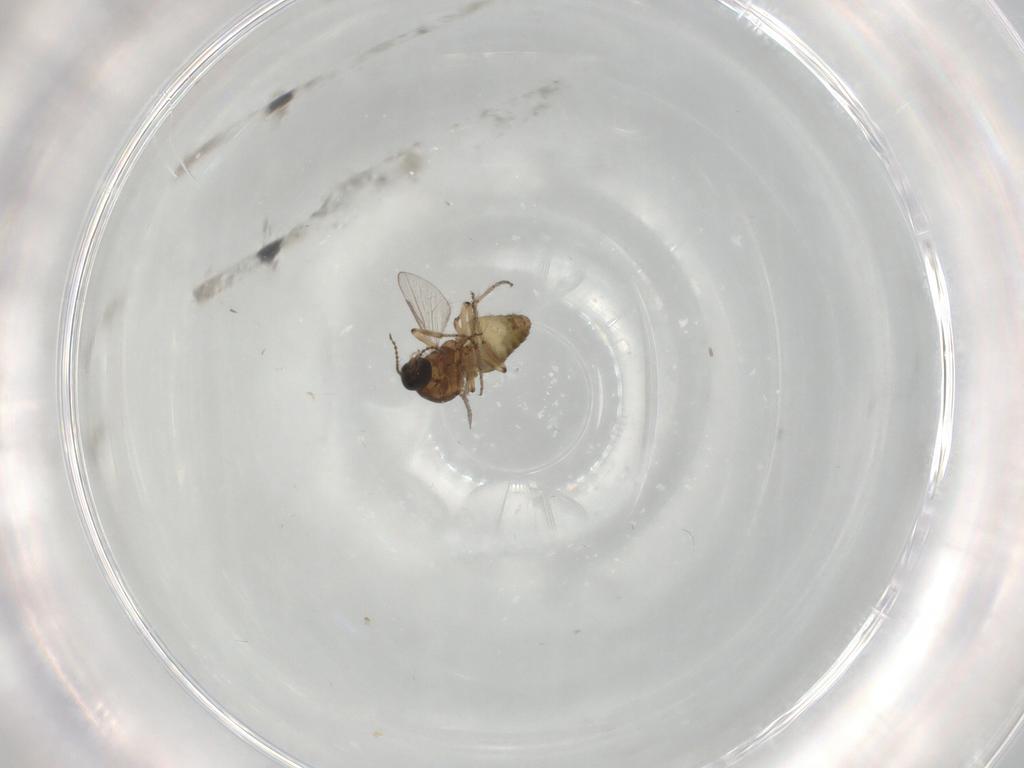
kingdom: Animalia
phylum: Arthropoda
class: Insecta
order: Diptera
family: Ceratopogonidae
